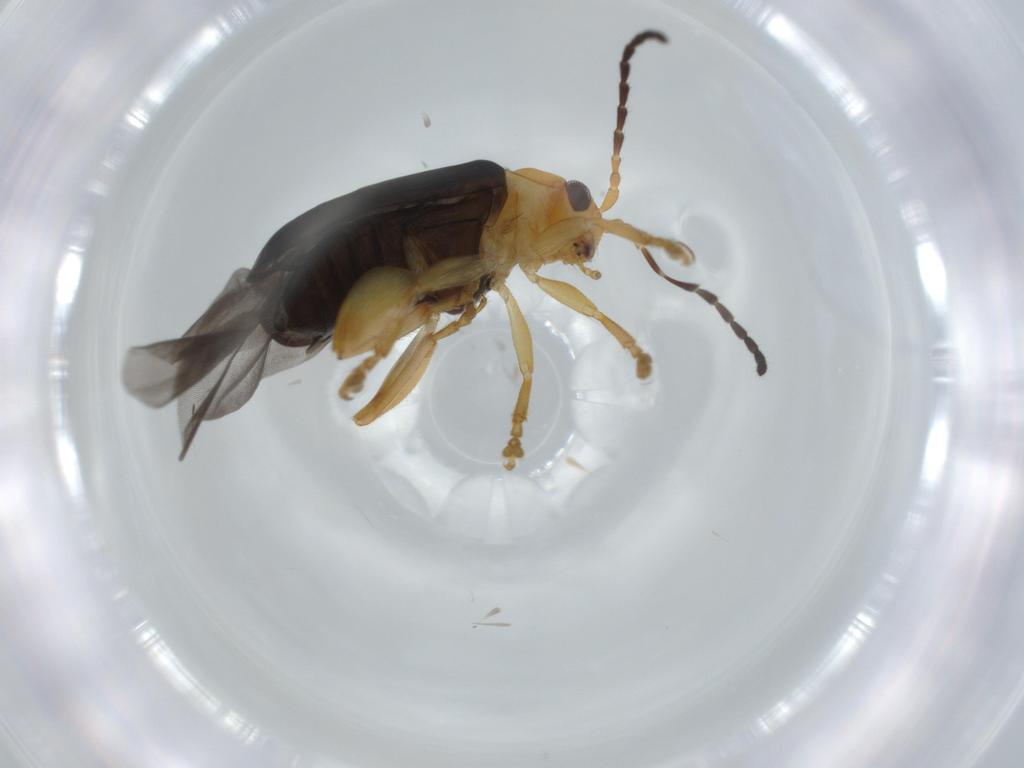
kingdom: Animalia
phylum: Arthropoda
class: Insecta
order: Coleoptera
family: Chrysomelidae
